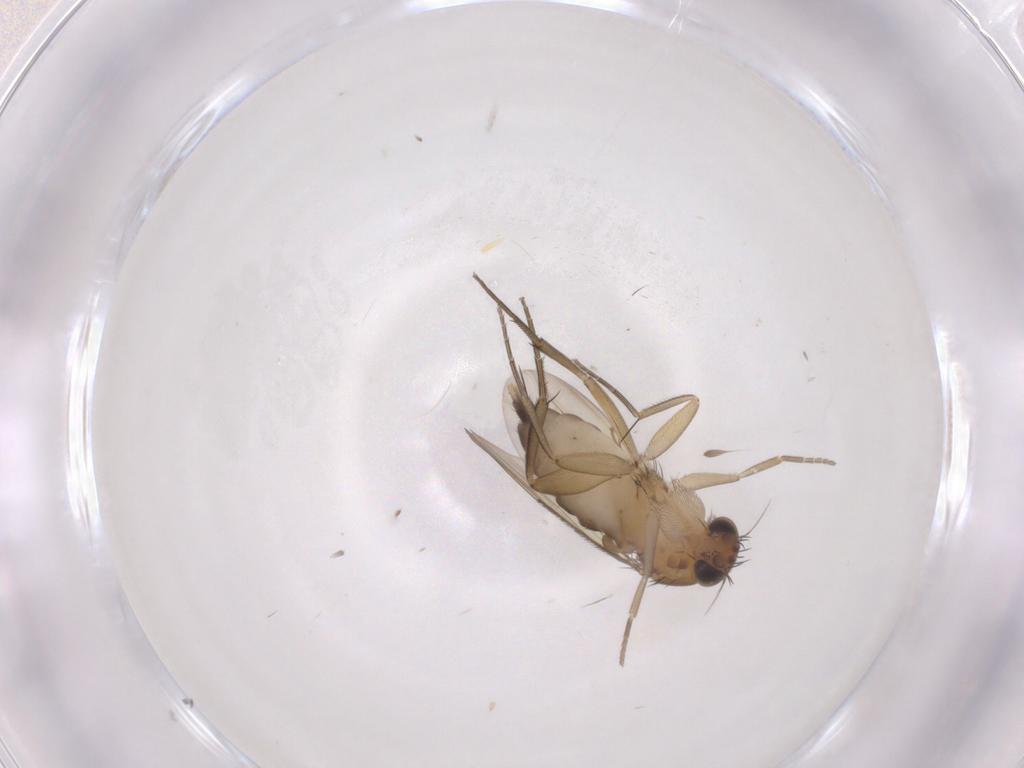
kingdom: Animalia
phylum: Arthropoda
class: Insecta
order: Diptera
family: Phoridae
